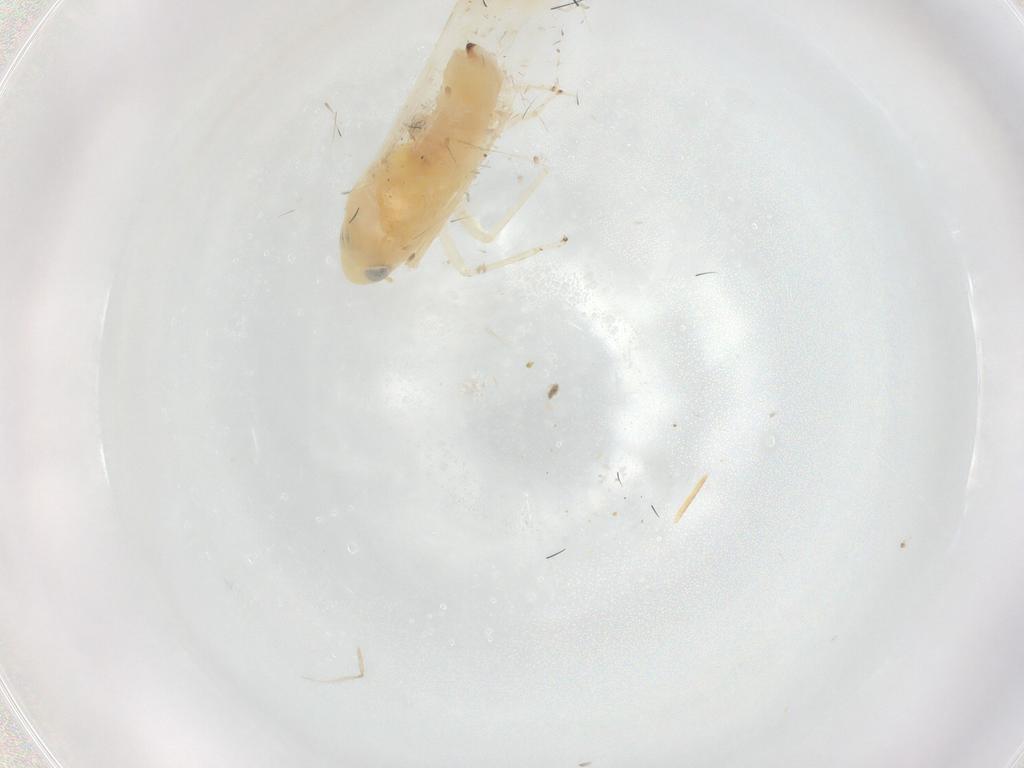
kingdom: Animalia
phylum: Arthropoda
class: Insecta
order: Hemiptera
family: Cicadellidae
